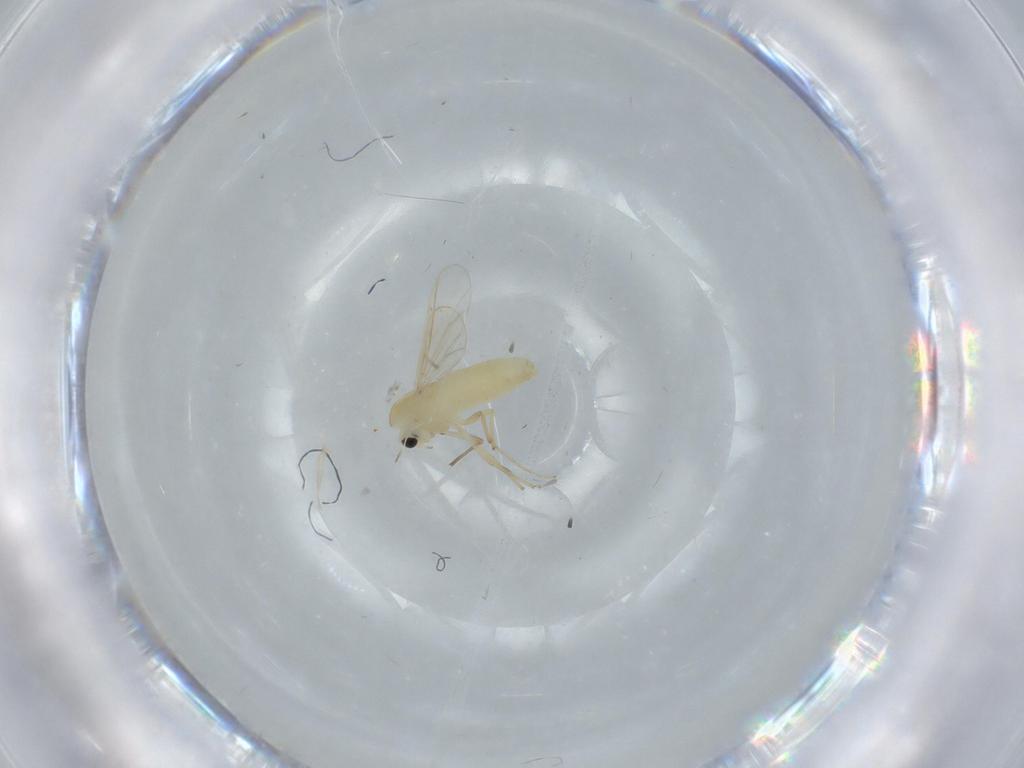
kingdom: Animalia
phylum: Arthropoda
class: Insecta
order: Diptera
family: Chironomidae
